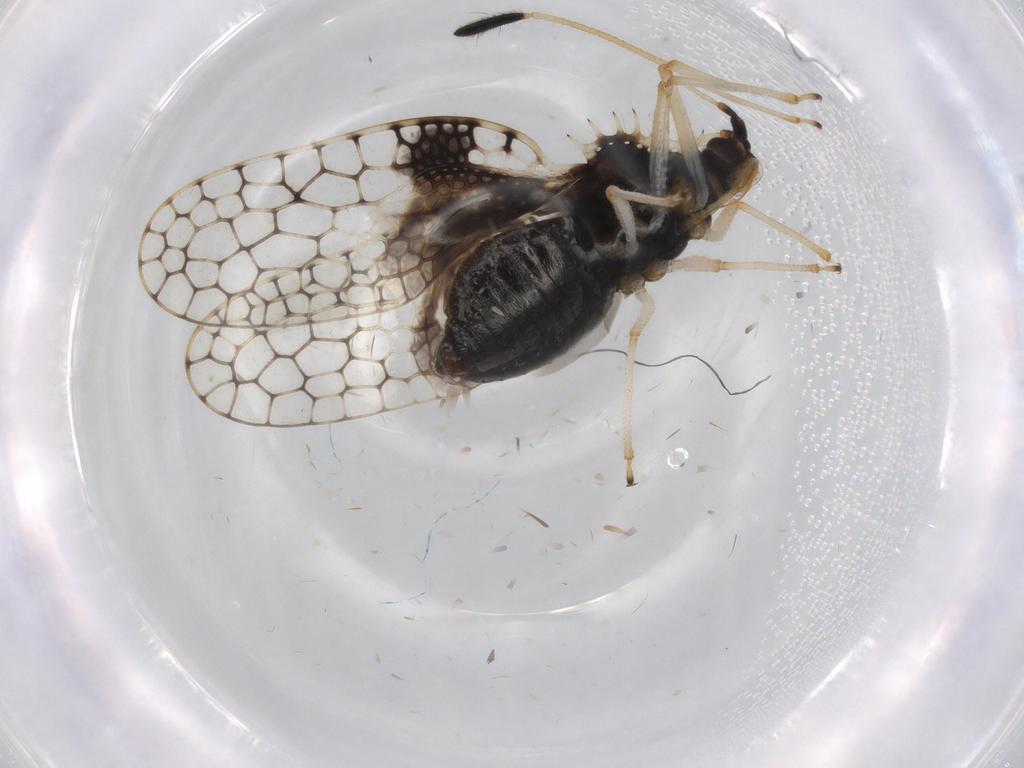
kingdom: Animalia
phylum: Arthropoda
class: Insecta
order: Hemiptera
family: Tingidae
